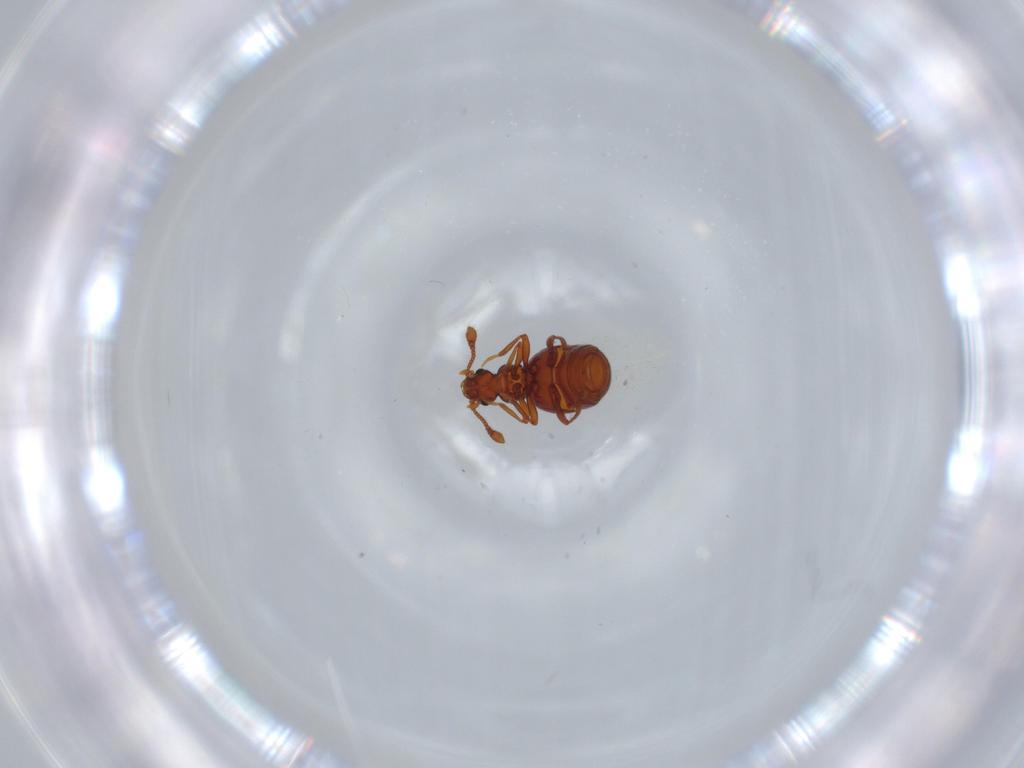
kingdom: Animalia
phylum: Arthropoda
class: Insecta
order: Coleoptera
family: Staphylinidae
